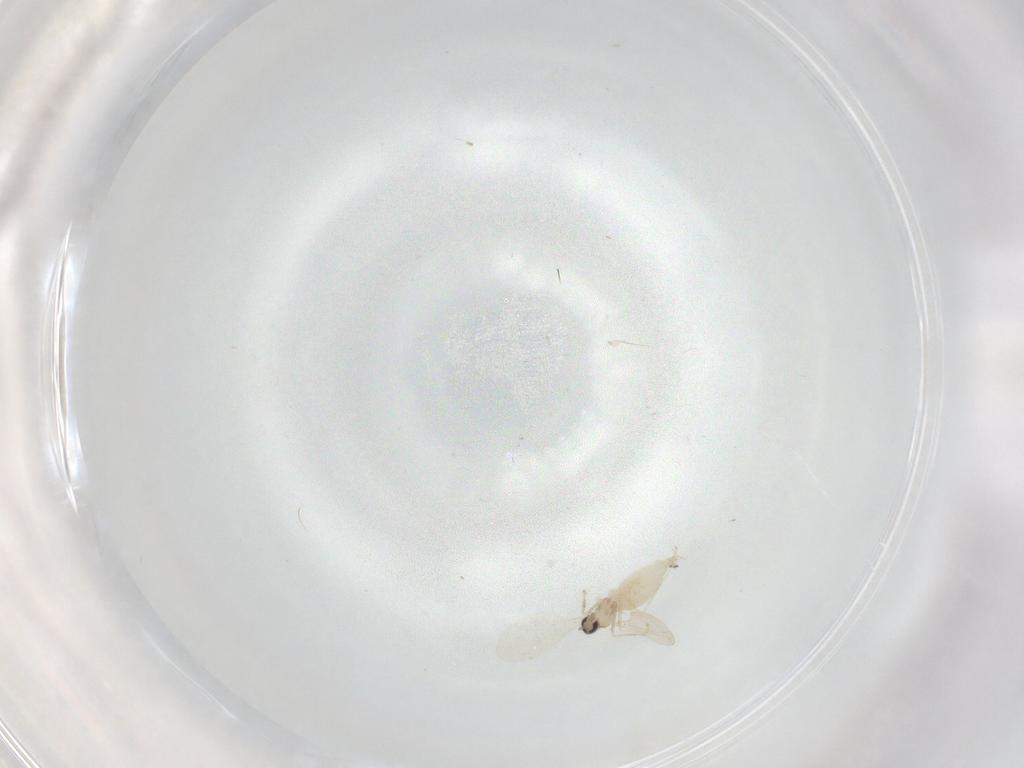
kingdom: Animalia
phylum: Arthropoda
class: Insecta
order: Diptera
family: Cecidomyiidae
